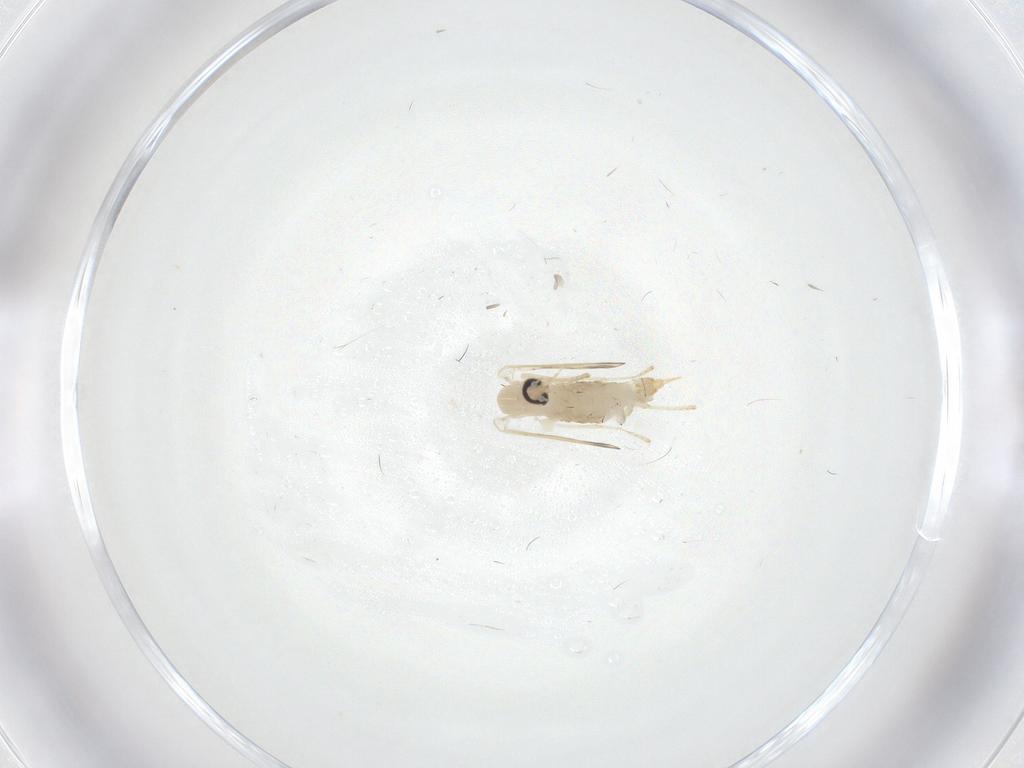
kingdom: Animalia
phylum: Arthropoda
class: Insecta
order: Diptera
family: Psychodidae
